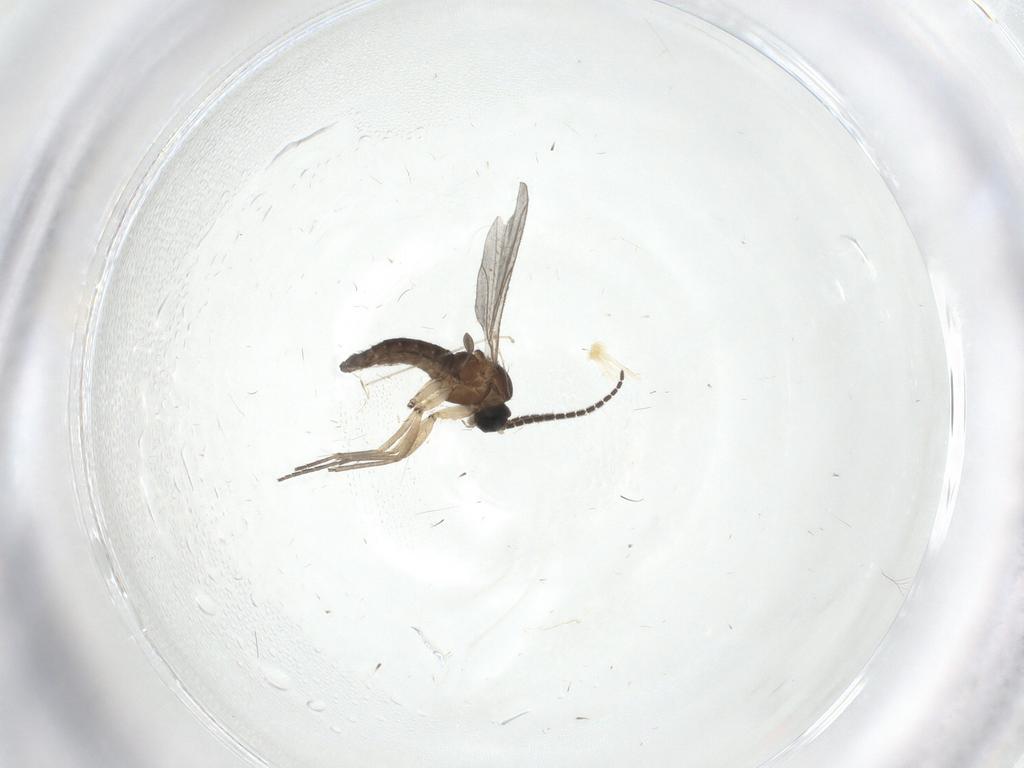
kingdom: Animalia
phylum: Arthropoda
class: Insecta
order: Diptera
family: Sciaridae
